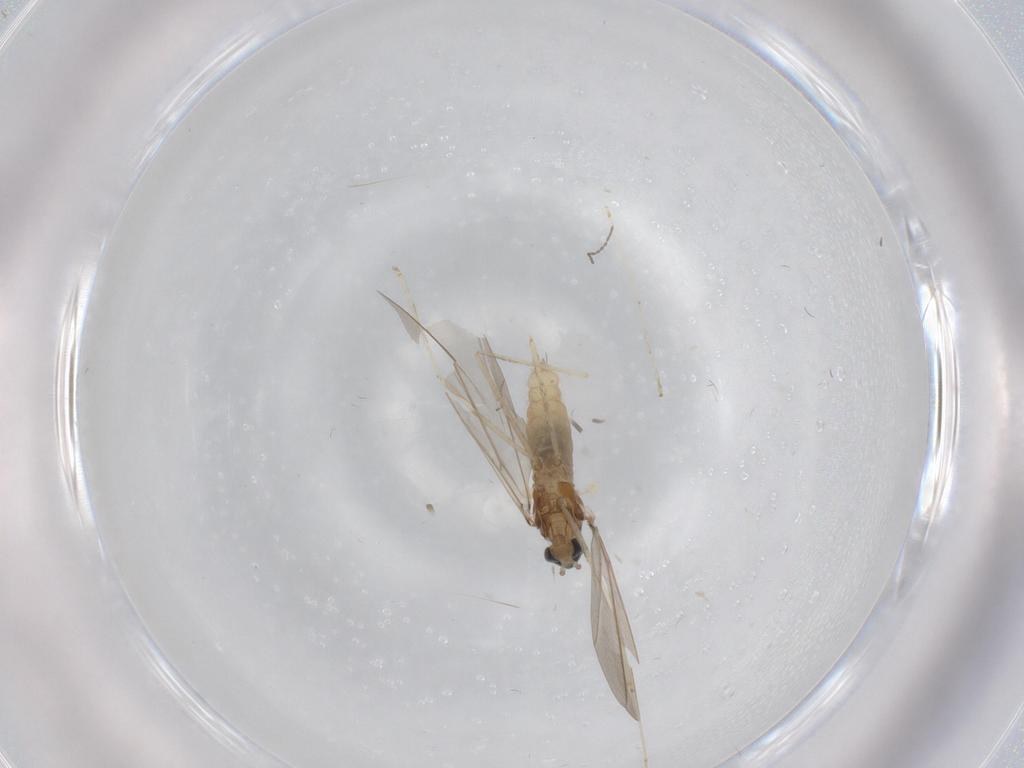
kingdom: Animalia
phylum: Arthropoda
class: Insecta
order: Diptera
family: Cecidomyiidae
